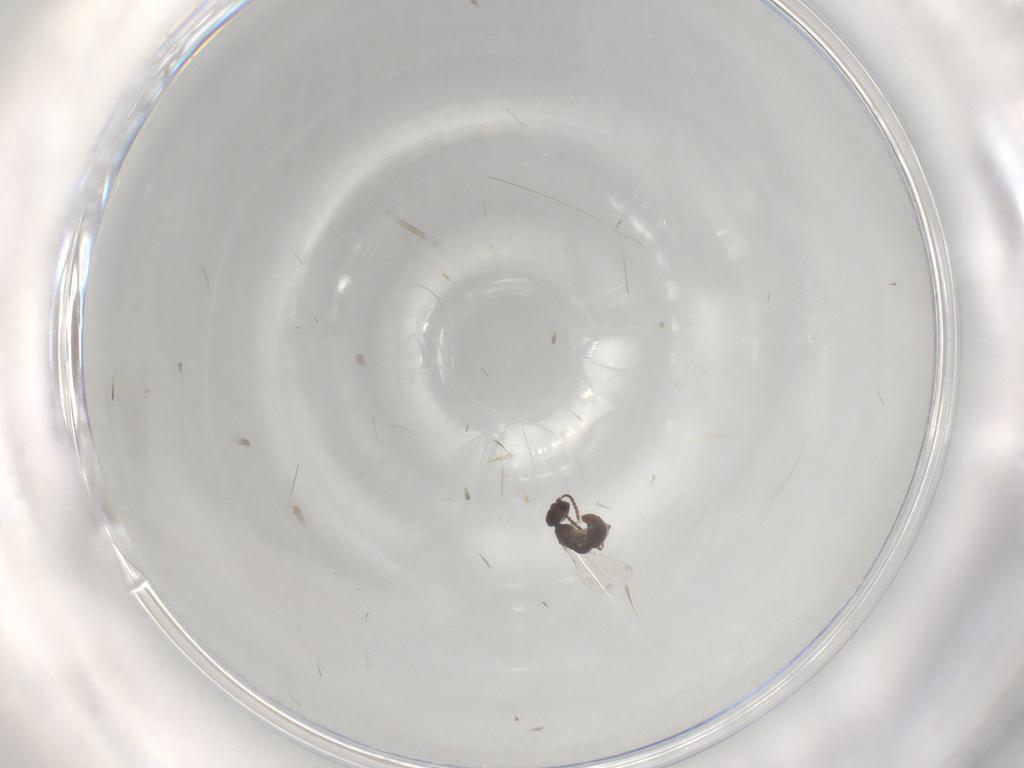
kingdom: Animalia
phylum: Arthropoda
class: Insecta
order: Hymenoptera
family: Bethylidae
